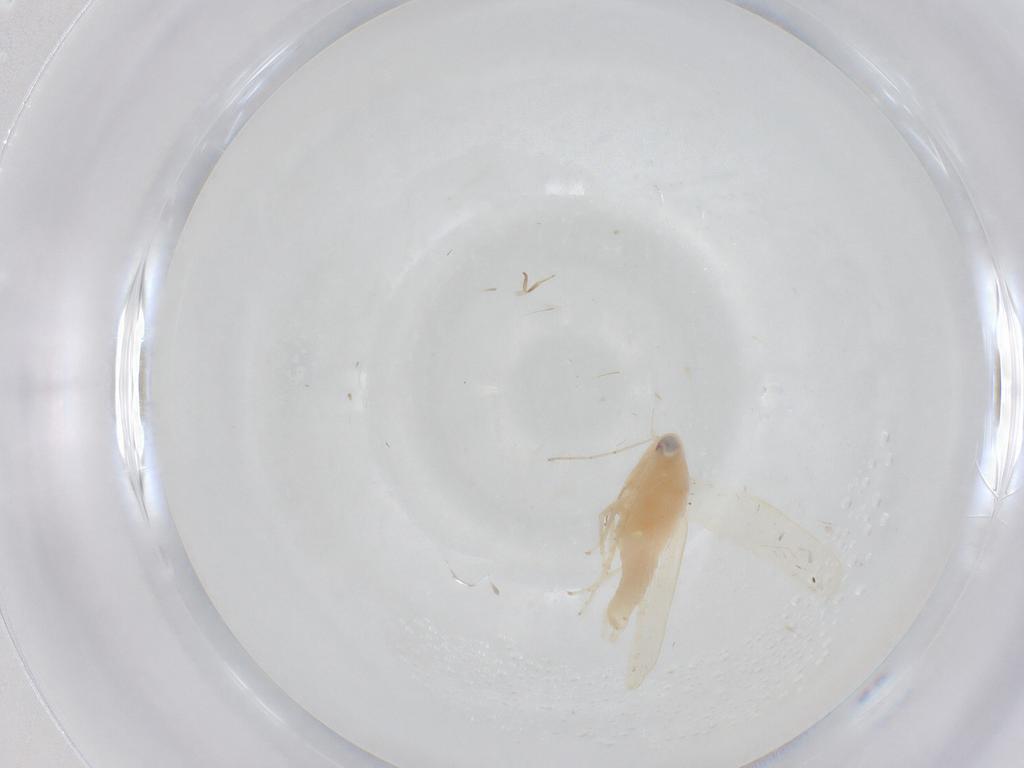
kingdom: Animalia
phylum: Arthropoda
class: Insecta
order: Hemiptera
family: Cicadellidae
